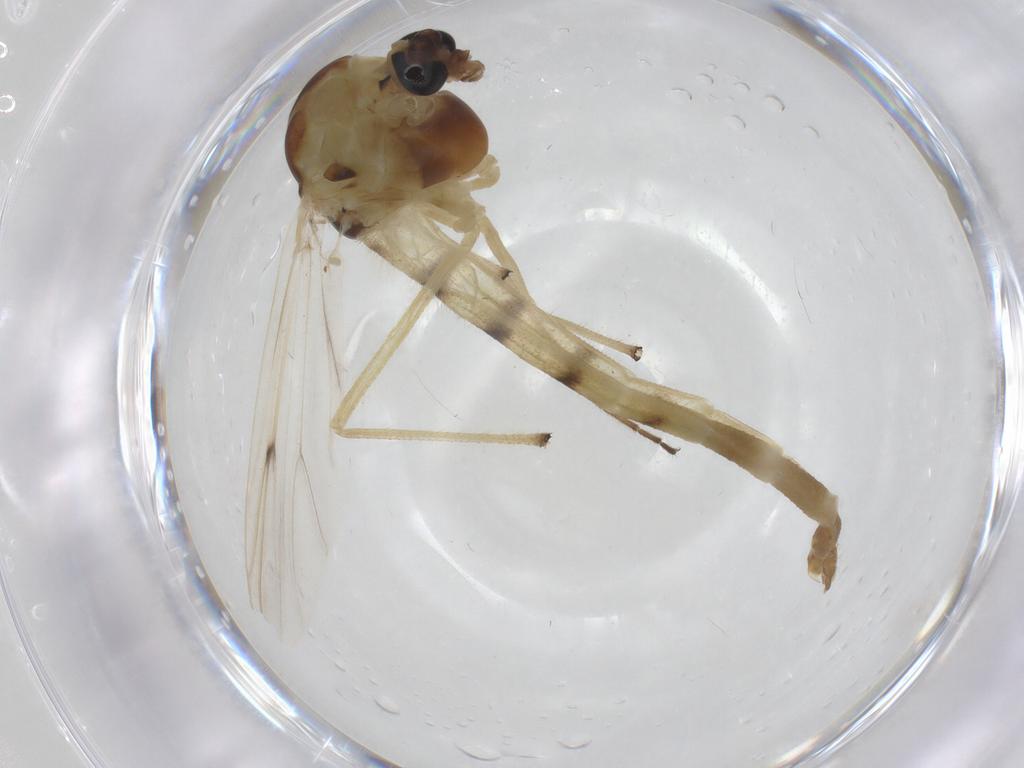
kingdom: Animalia
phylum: Arthropoda
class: Insecta
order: Diptera
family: Chironomidae
